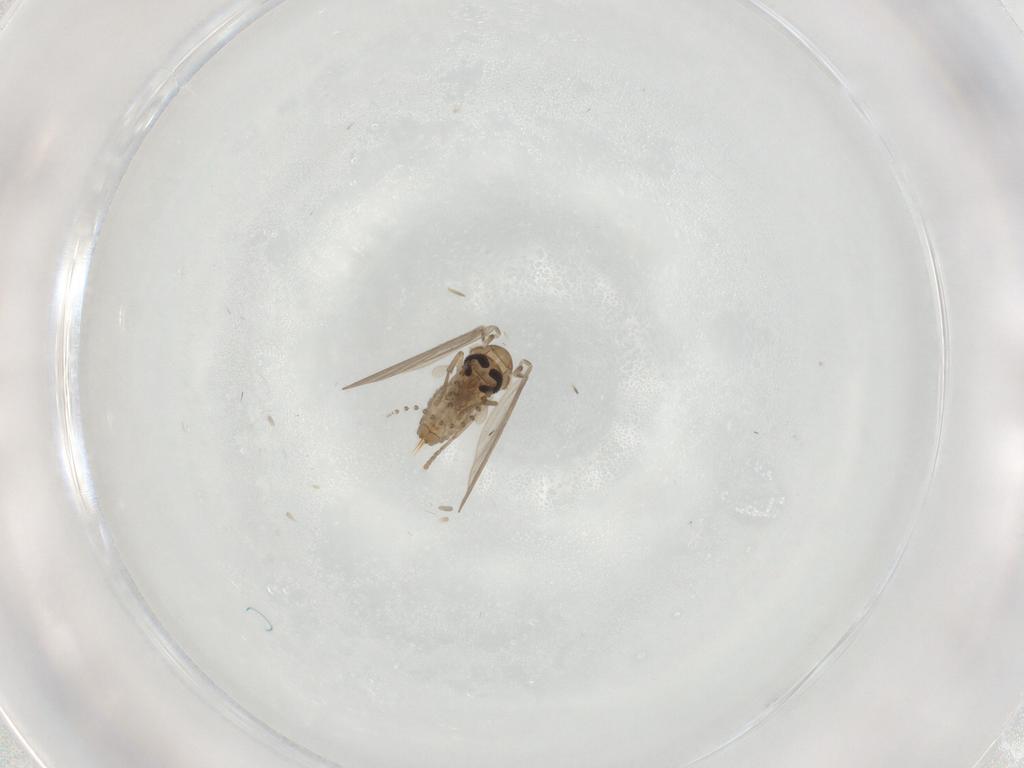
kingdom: Animalia
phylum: Arthropoda
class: Insecta
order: Diptera
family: Psychodidae
